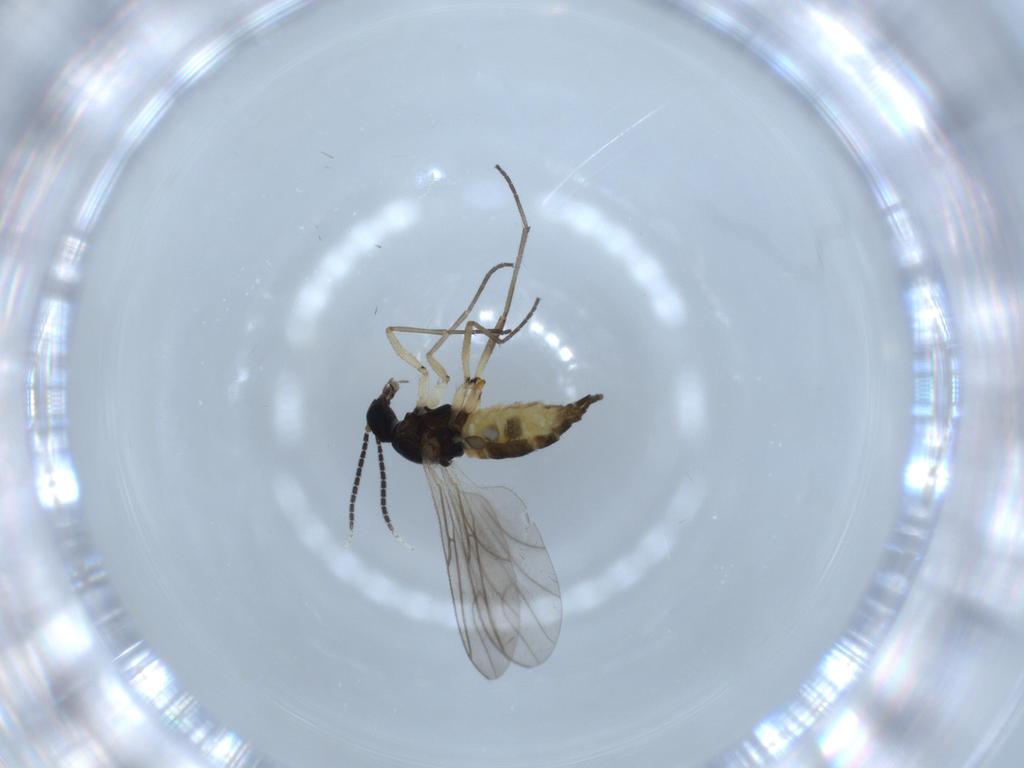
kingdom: Animalia
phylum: Arthropoda
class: Insecta
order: Diptera
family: Sciaridae
